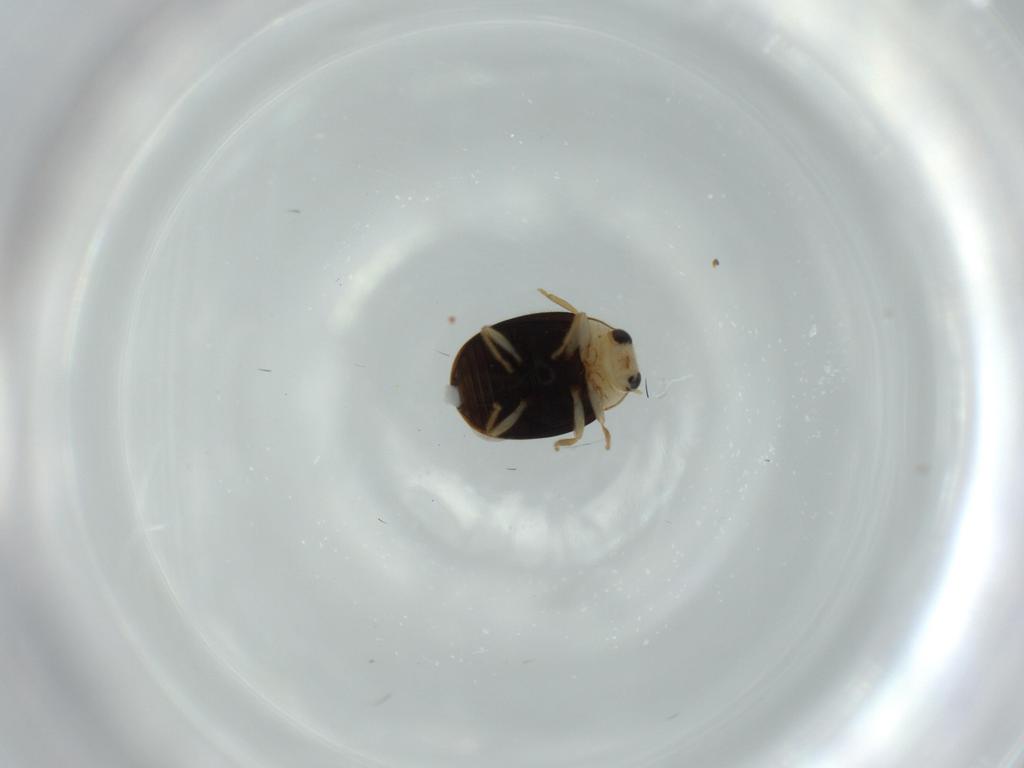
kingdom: Animalia
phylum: Arthropoda
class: Insecta
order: Coleoptera
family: Coccinellidae
